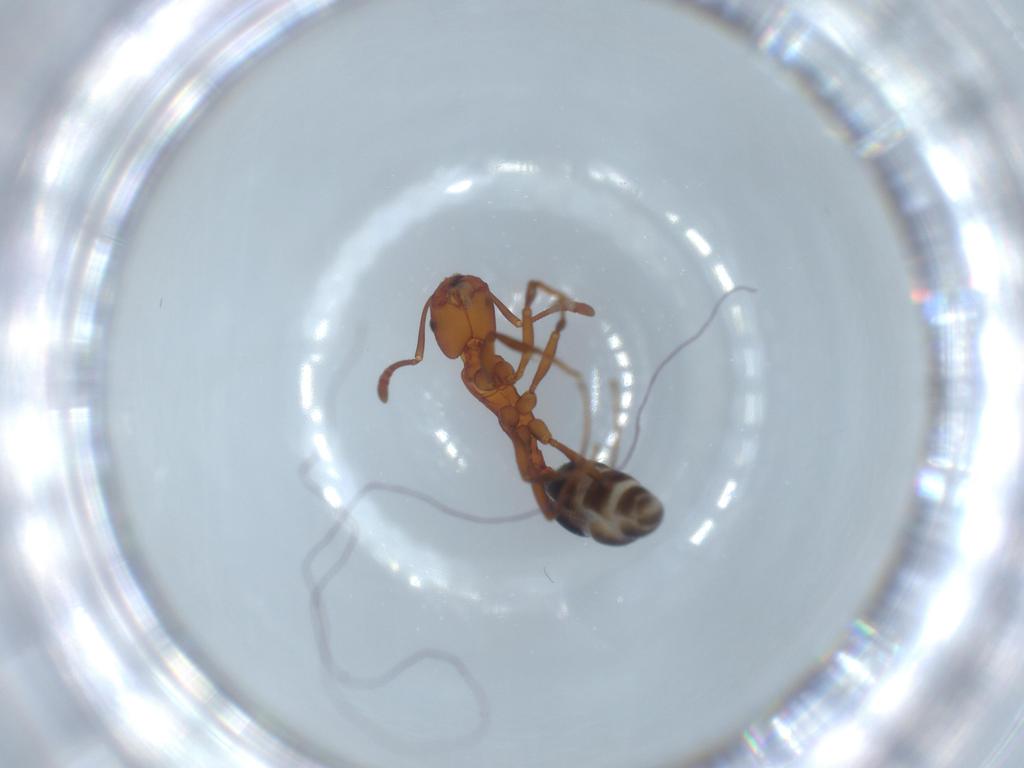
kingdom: Animalia
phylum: Arthropoda
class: Insecta
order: Hymenoptera
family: Formicidae
